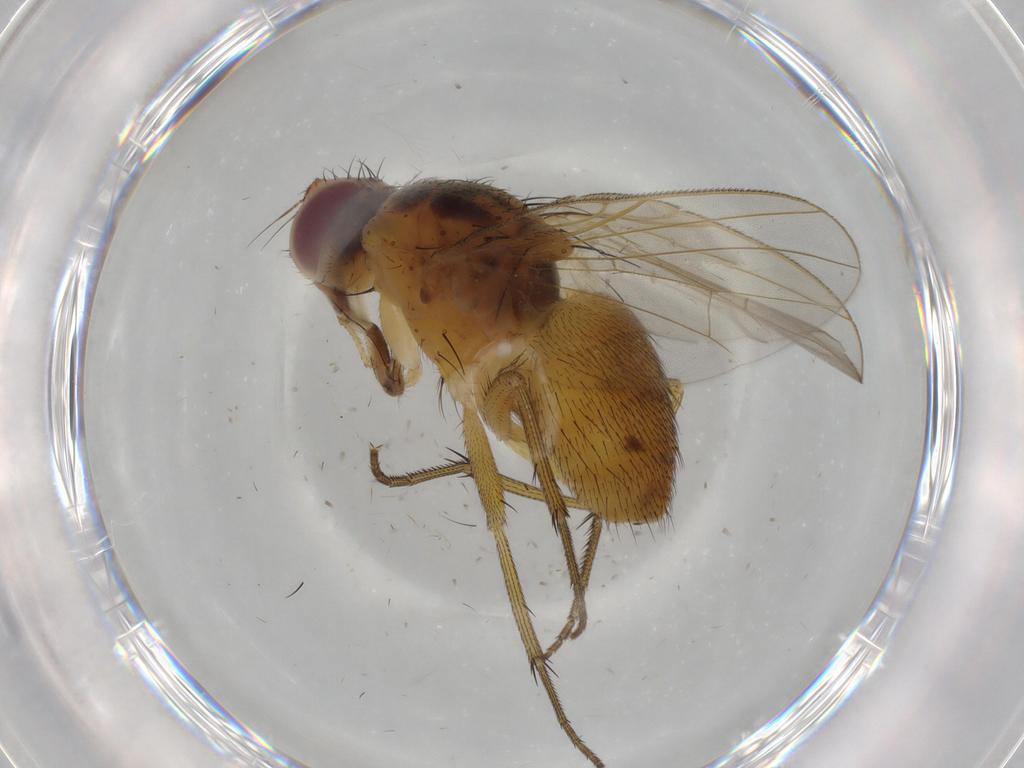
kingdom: Animalia
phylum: Arthropoda
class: Insecta
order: Diptera
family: Muscidae
